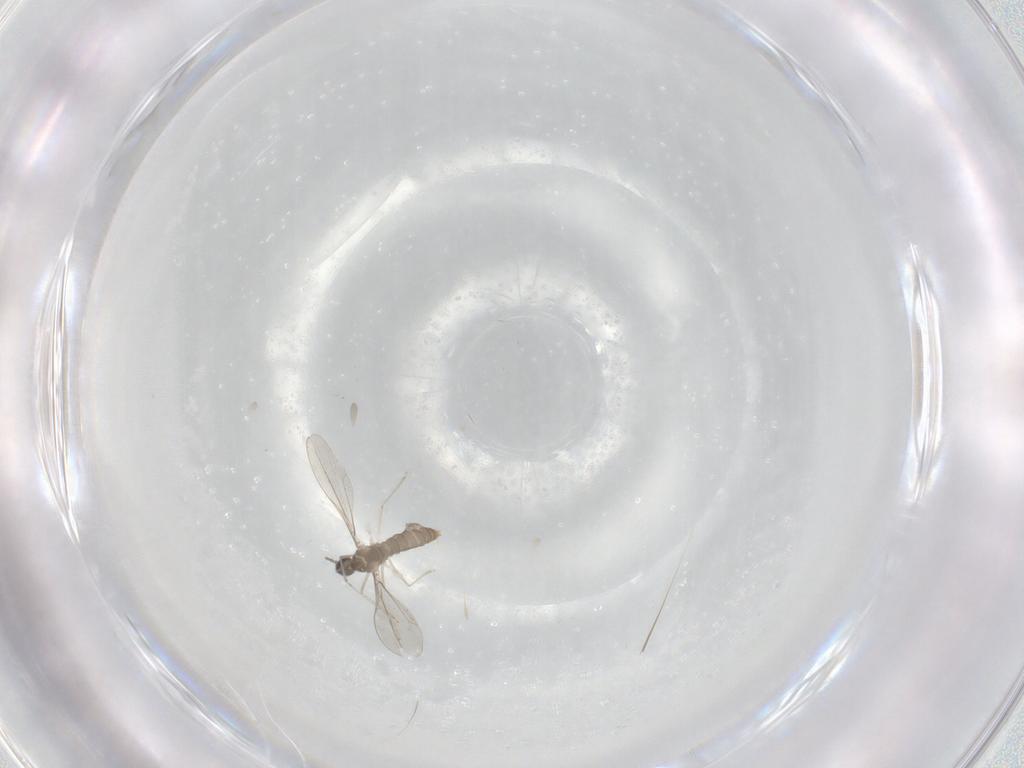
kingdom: Animalia
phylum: Arthropoda
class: Insecta
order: Diptera
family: Cecidomyiidae
